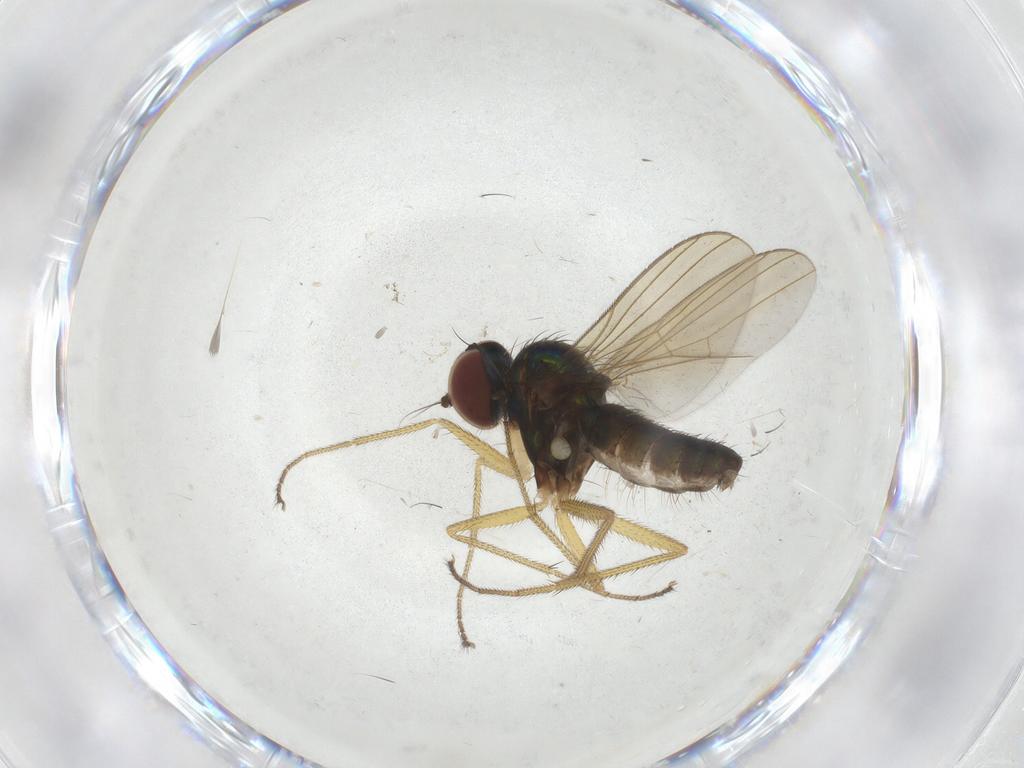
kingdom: Animalia
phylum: Arthropoda
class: Insecta
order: Diptera
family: Dolichopodidae
